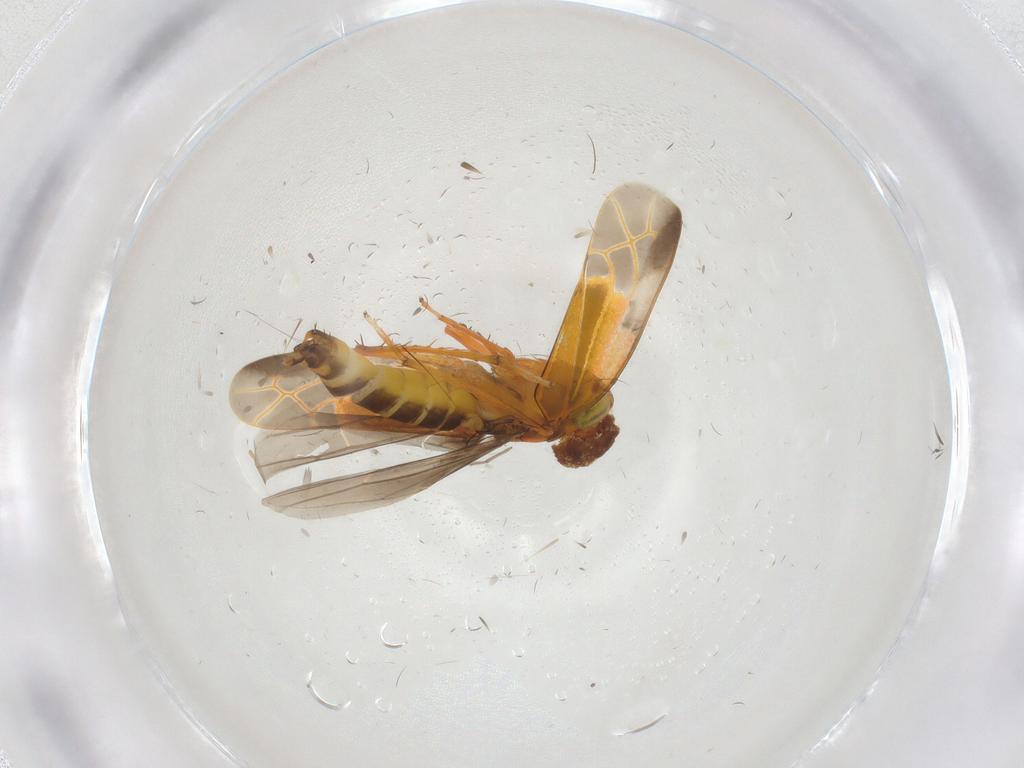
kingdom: Animalia
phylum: Arthropoda
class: Insecta
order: Hemiptera
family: Cicadellidae
